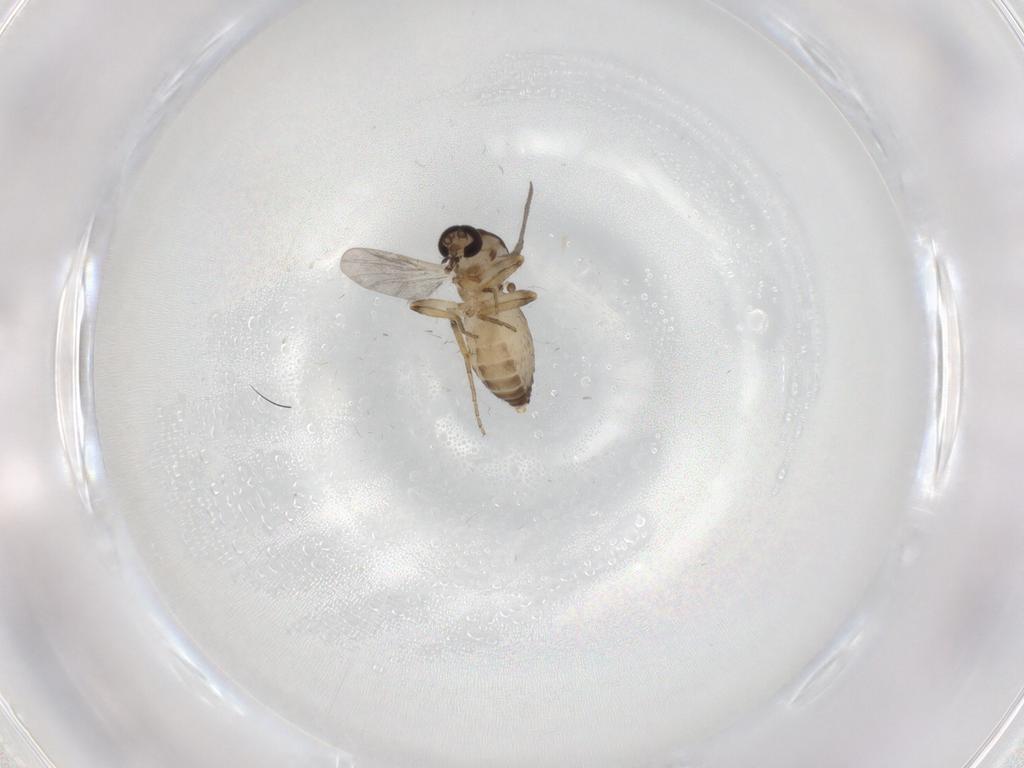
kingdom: Animalia
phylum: Arthropoda
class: Insecta
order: Diptera
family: Ceratopogonidae
